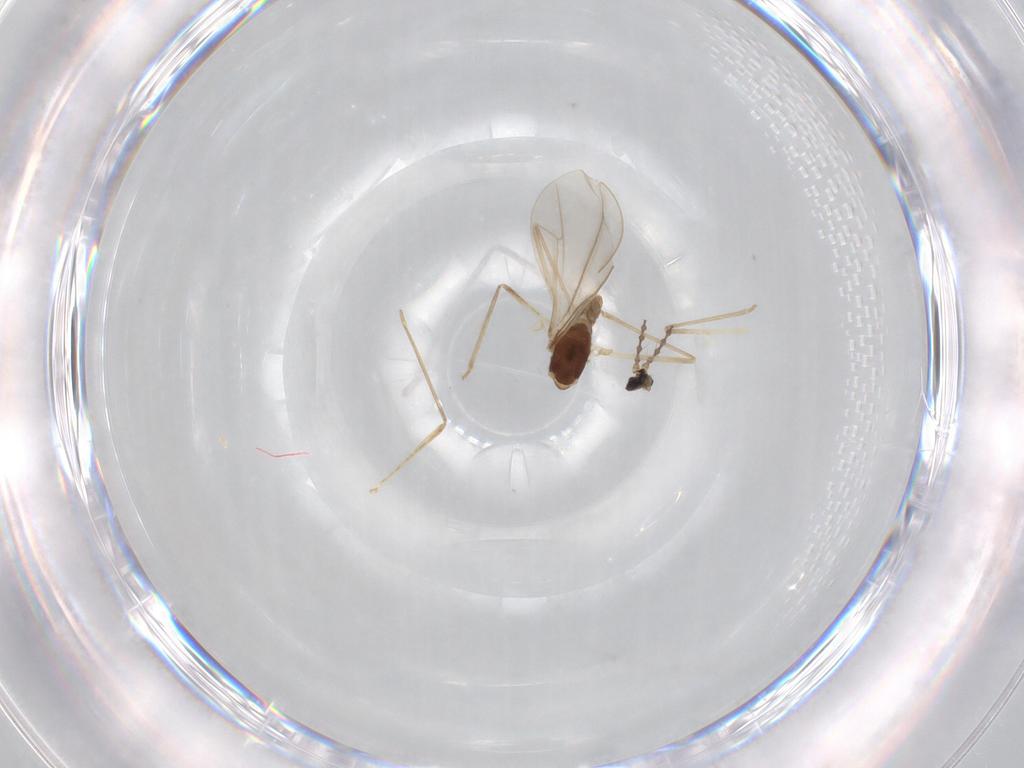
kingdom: Animalia
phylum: Arthropoda
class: Insecta
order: Diptera
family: Cecidomyiidae
